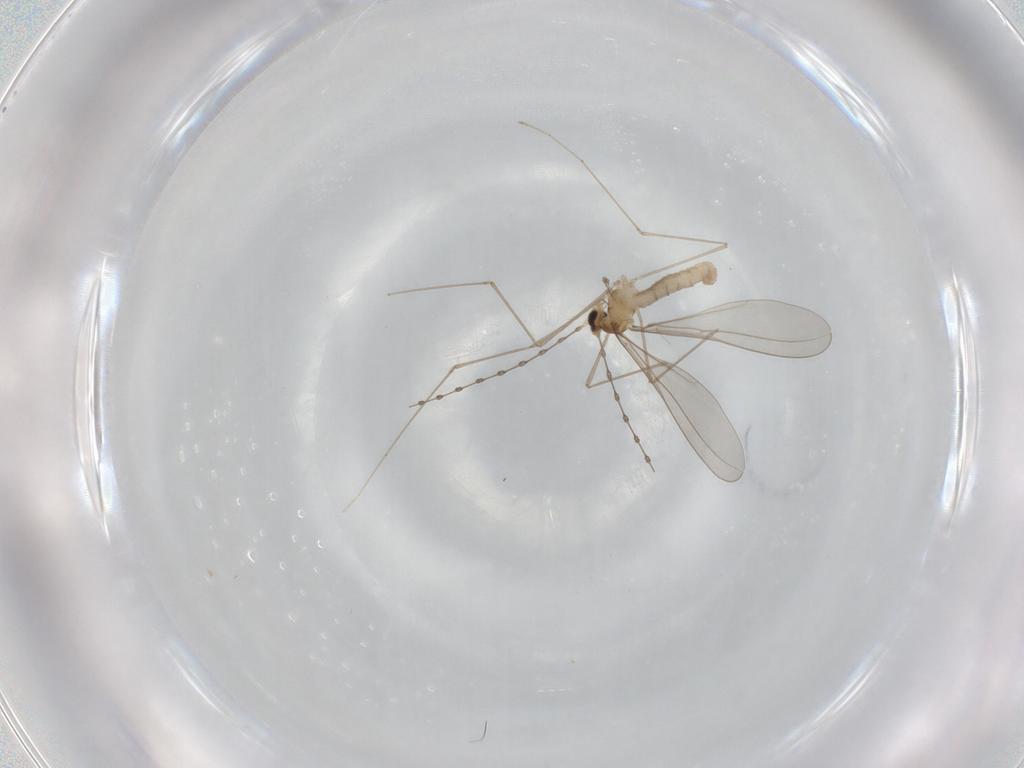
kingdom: Animalia
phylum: Arthropoda
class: Insecta
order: Diptera
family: Cecidomyiidae
